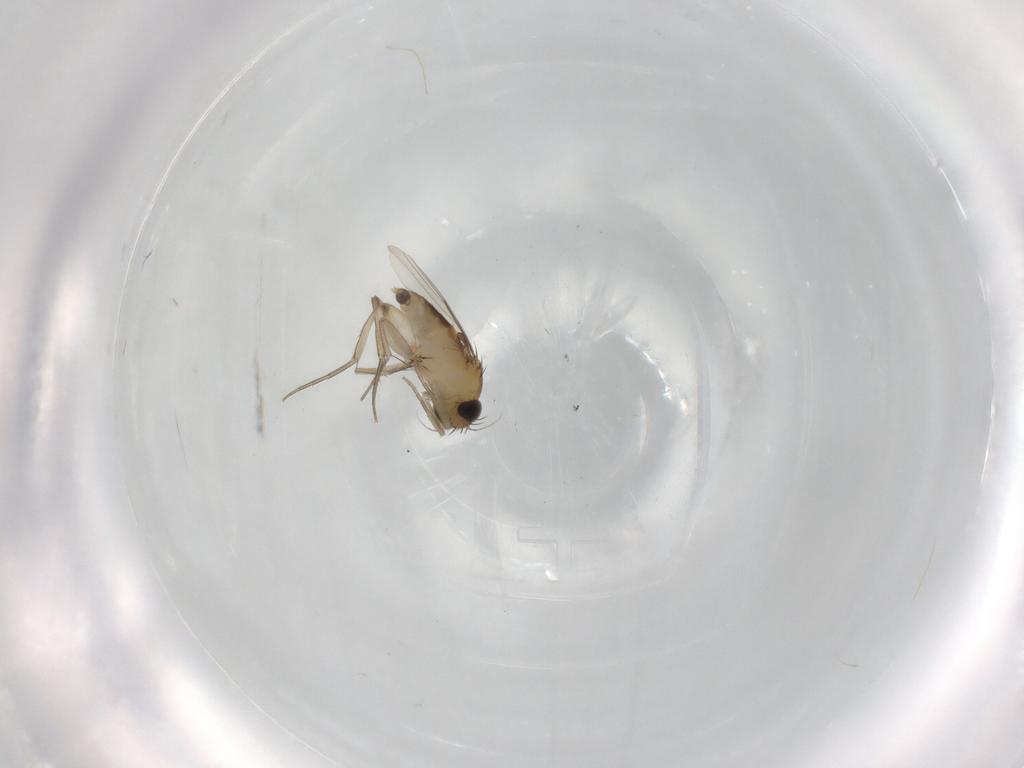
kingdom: Animalia
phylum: Arthropoda
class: Insecta
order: Diptera
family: Phoridae
